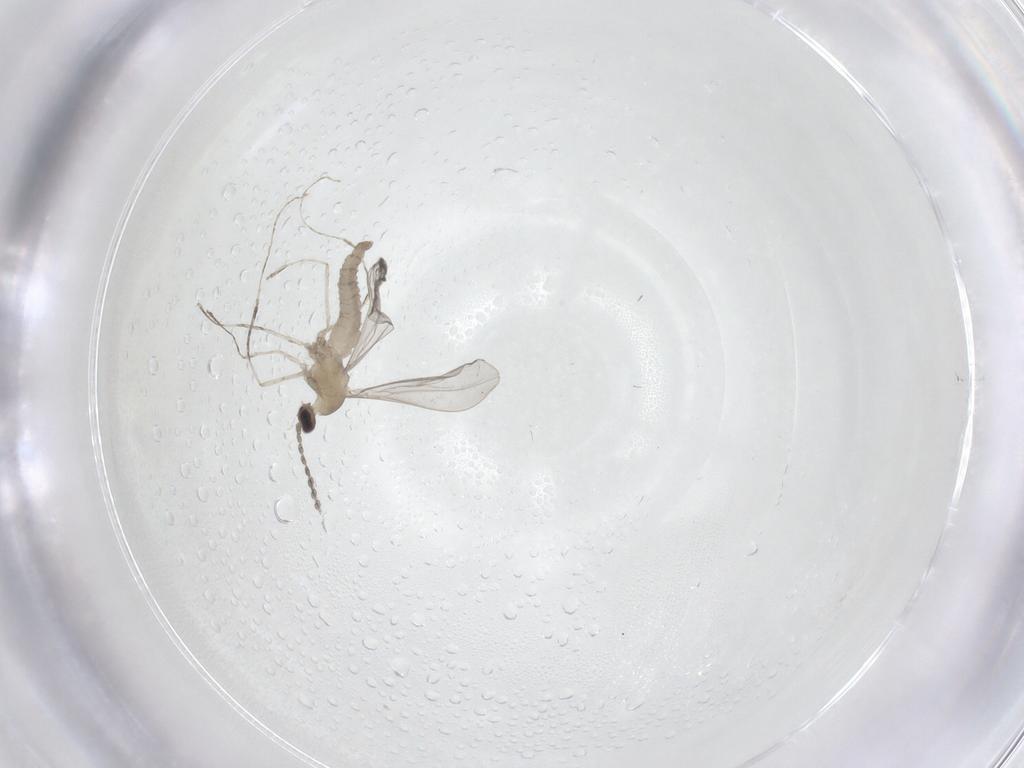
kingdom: Animalia
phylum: Arthropoda
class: Insecta
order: Diptera
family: Cecidomyiidae
